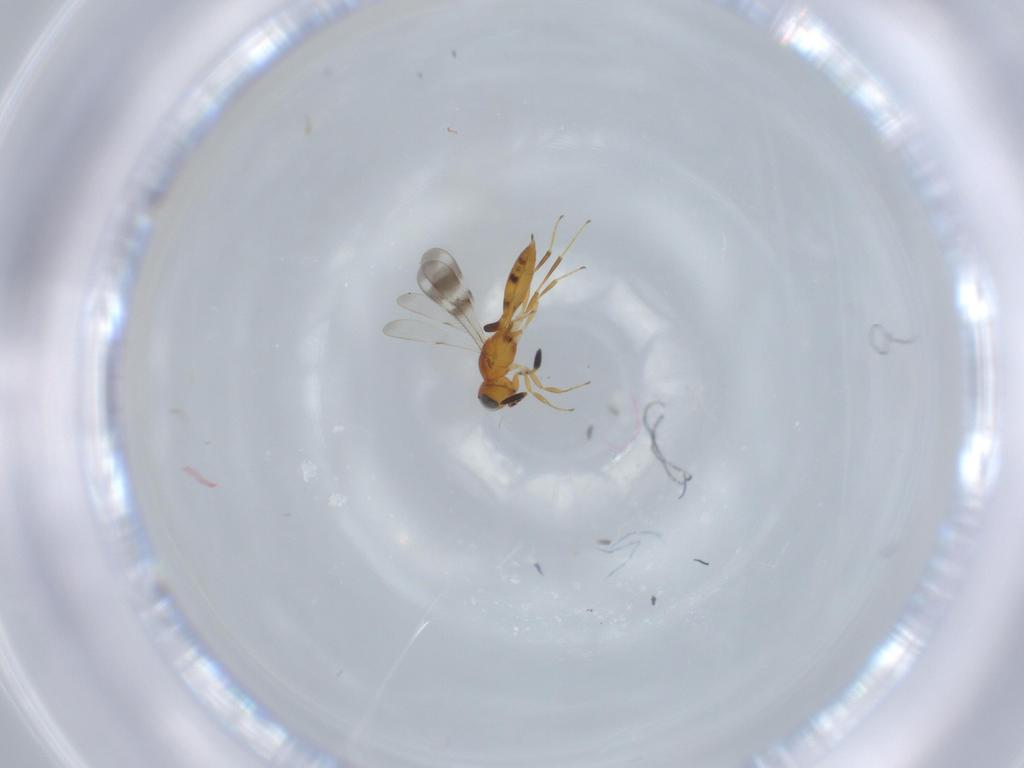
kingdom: Animalia
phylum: Arthropoda
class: Insecta
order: Hymenoptera
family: Scelionidae
